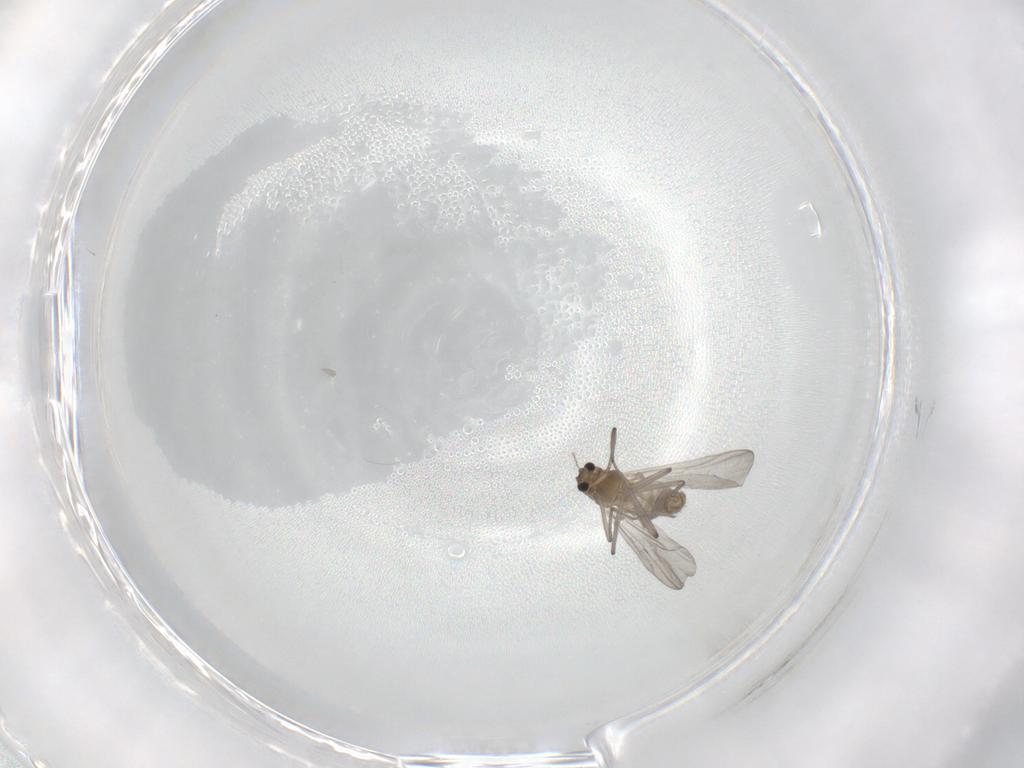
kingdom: Animalia
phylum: Arthropoda
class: Insecta
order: Diptera
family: Chironomidae
